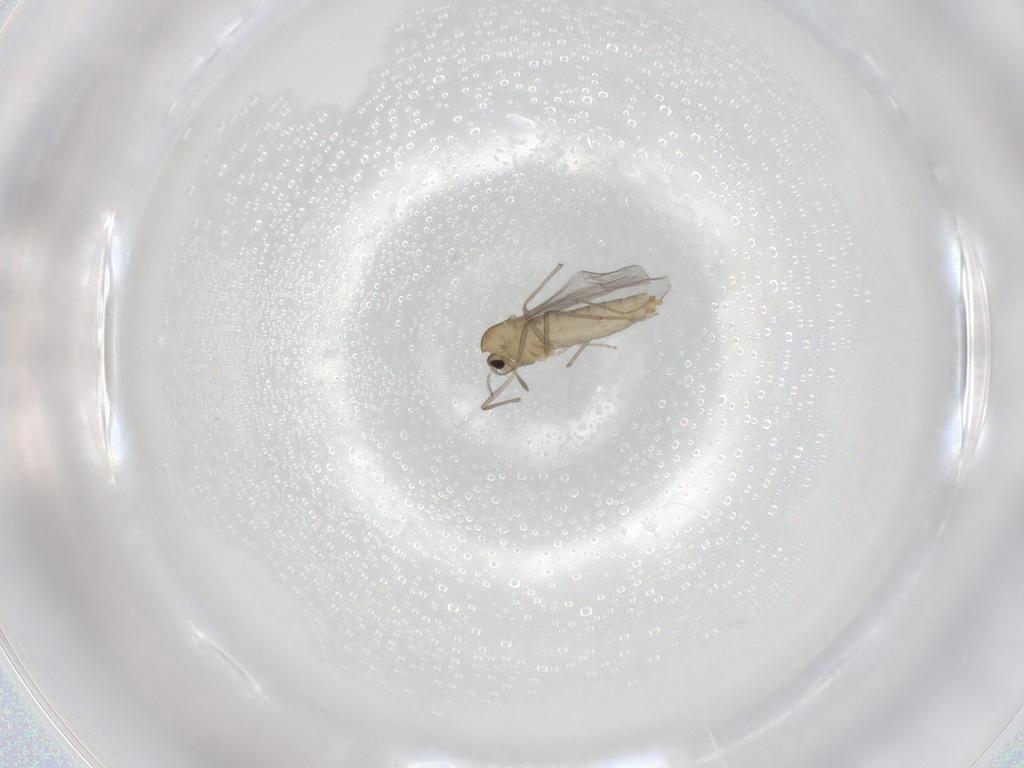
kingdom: Animalia
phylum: Arthropoda
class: Insecta
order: Diptera
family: Chironomidae
